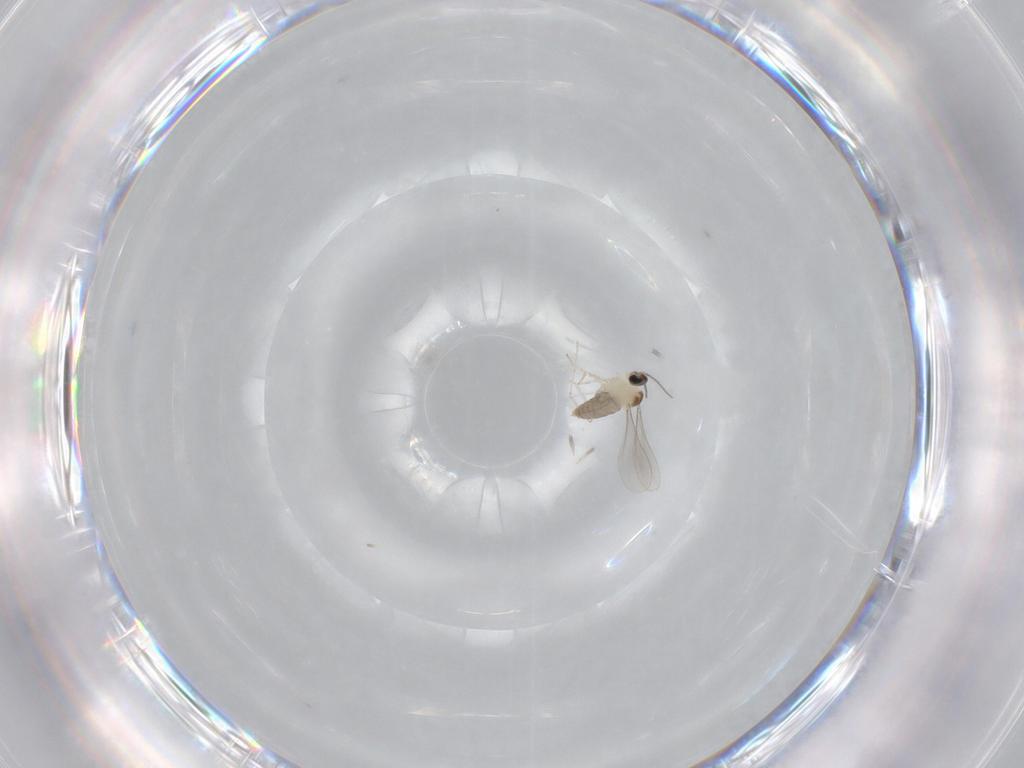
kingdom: Animalia
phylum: Arthropoda
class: Insecta
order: Diptera
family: Cecidomyiidae
